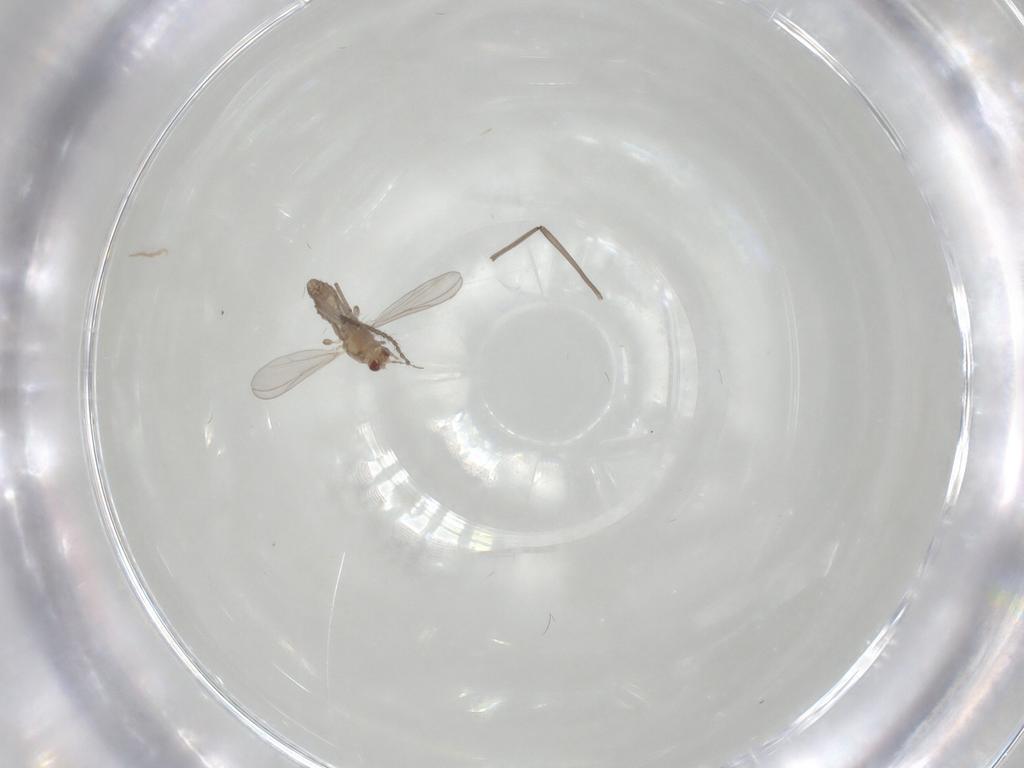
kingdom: Animalia
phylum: Arthropoda
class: Insecta
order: Diptera
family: Chironomidae
